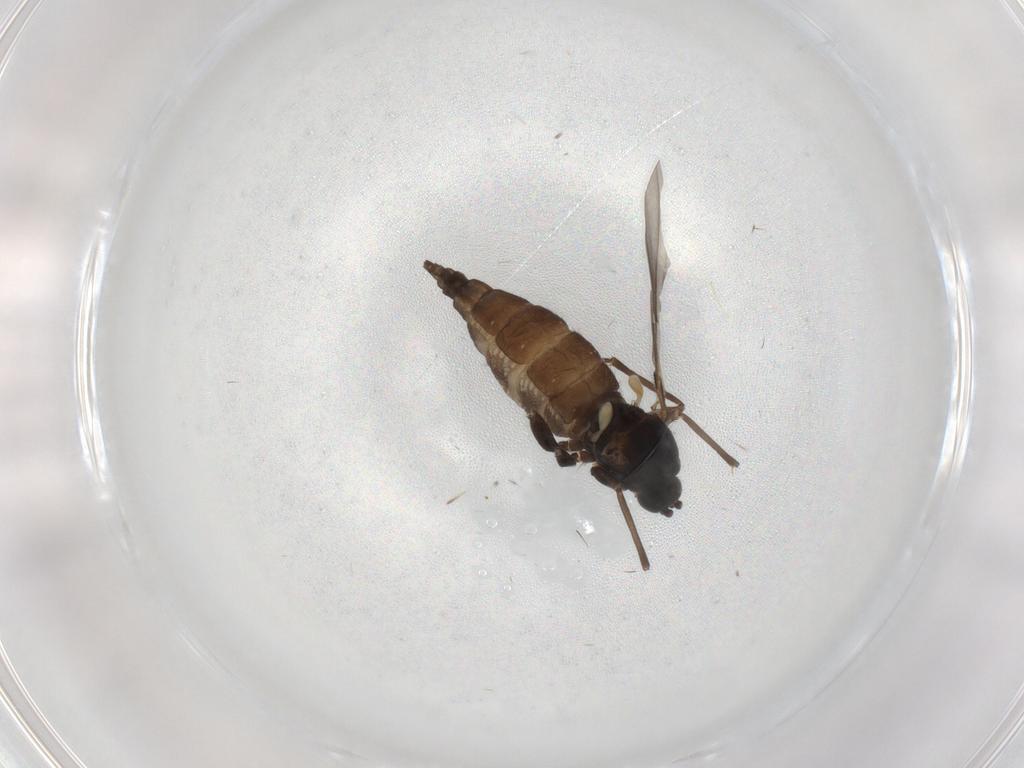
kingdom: Animalia
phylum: Arthropoda
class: Insecta
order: Diptera
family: Sciaridae
